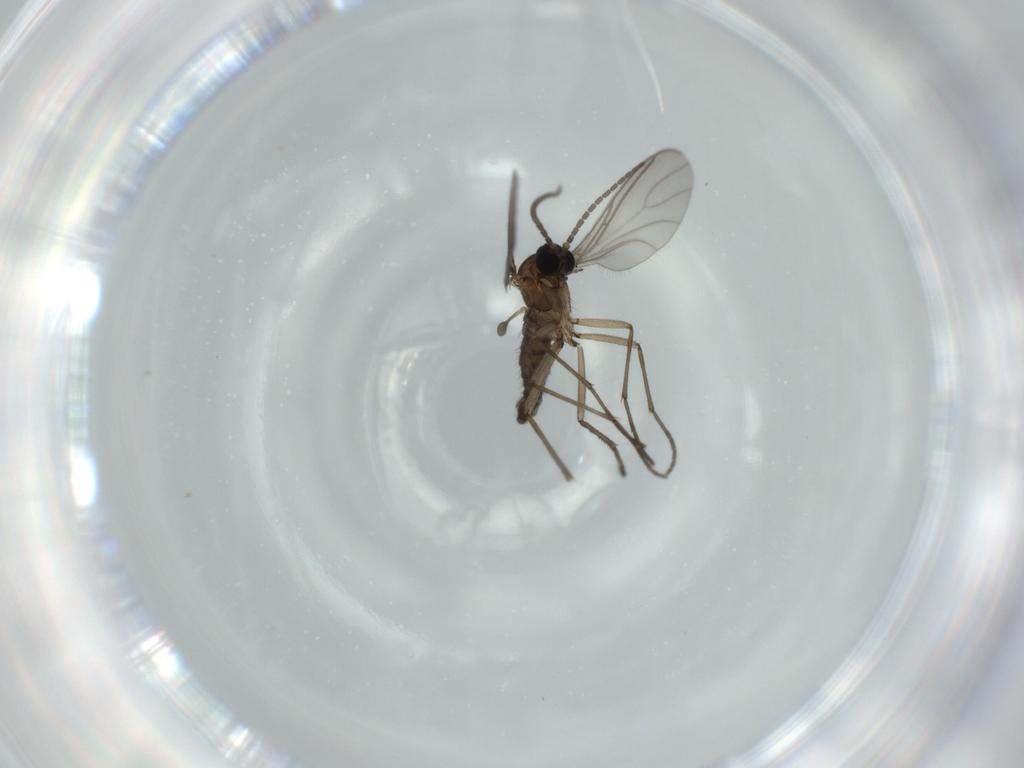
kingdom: Animalia
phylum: Arthropoda
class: Insecta
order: Diptera
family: Sciaridae
